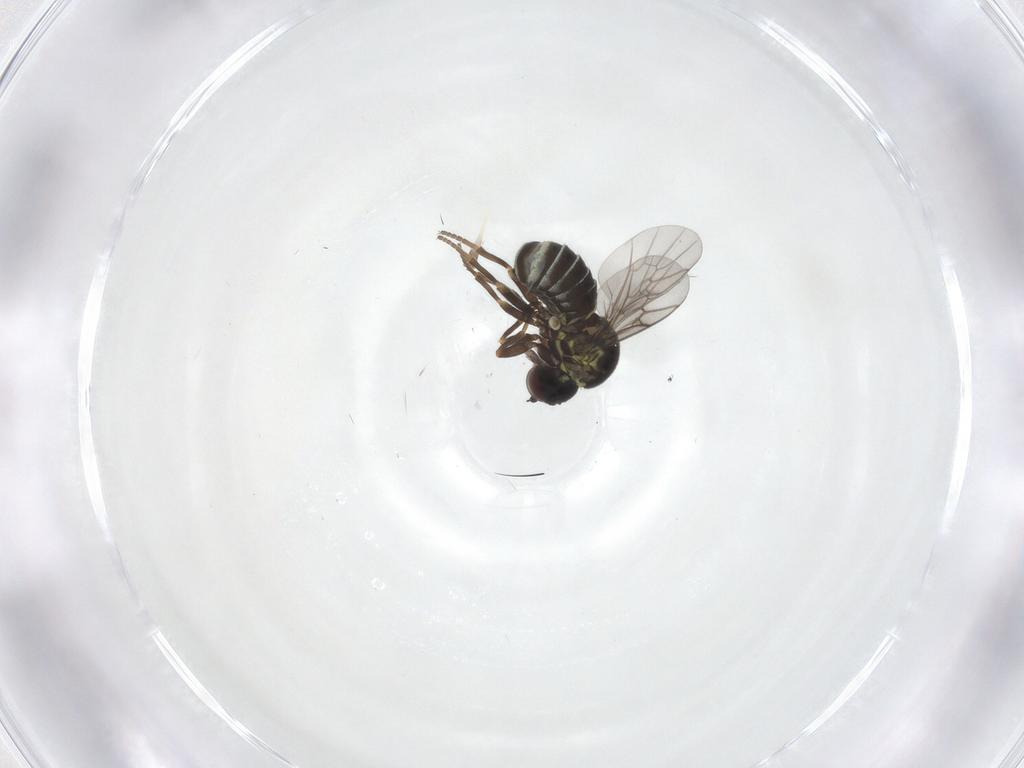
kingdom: Animalia
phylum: Arthropoda
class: Insecta
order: Diptera
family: Bombyliidae
